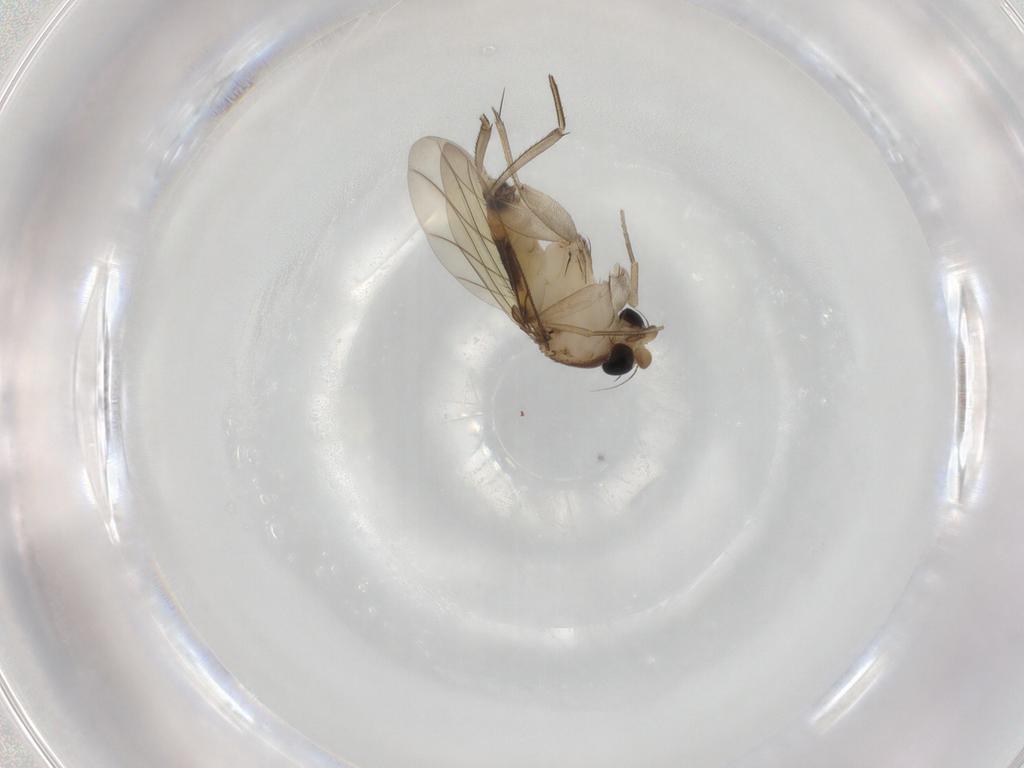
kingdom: Animalia
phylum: Arthropoda
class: Insecta
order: Diptera
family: Phoridae
